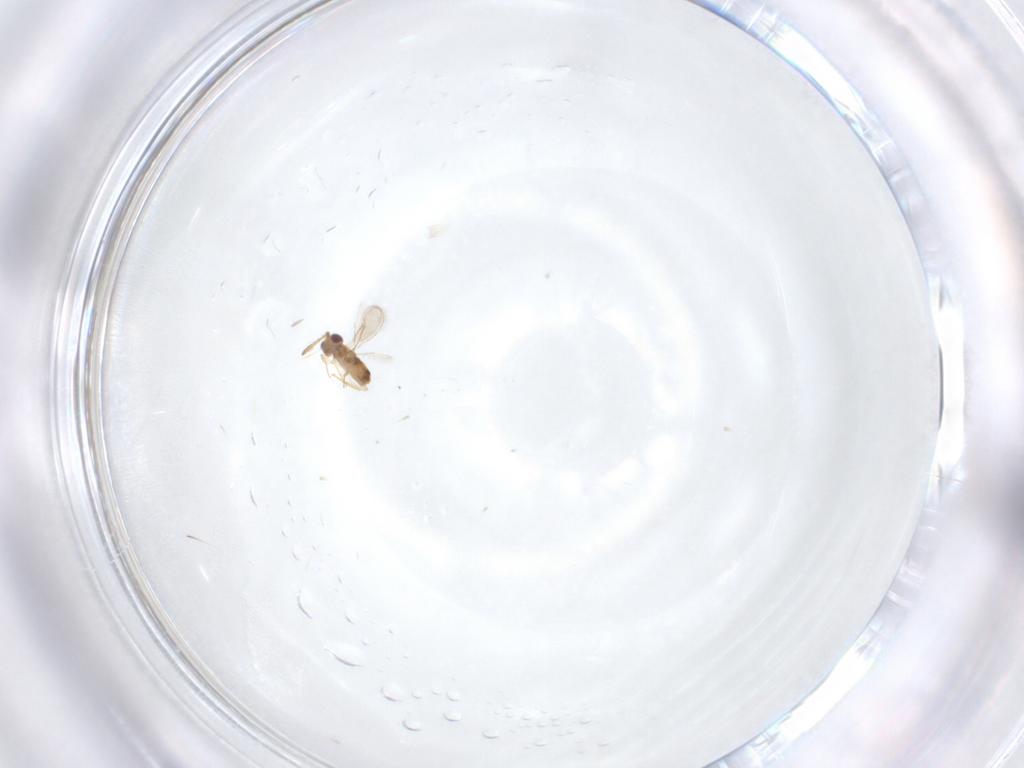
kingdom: Animalia
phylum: Arthropoda
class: Insecta
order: Hymenoptera
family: Aphelinidae
